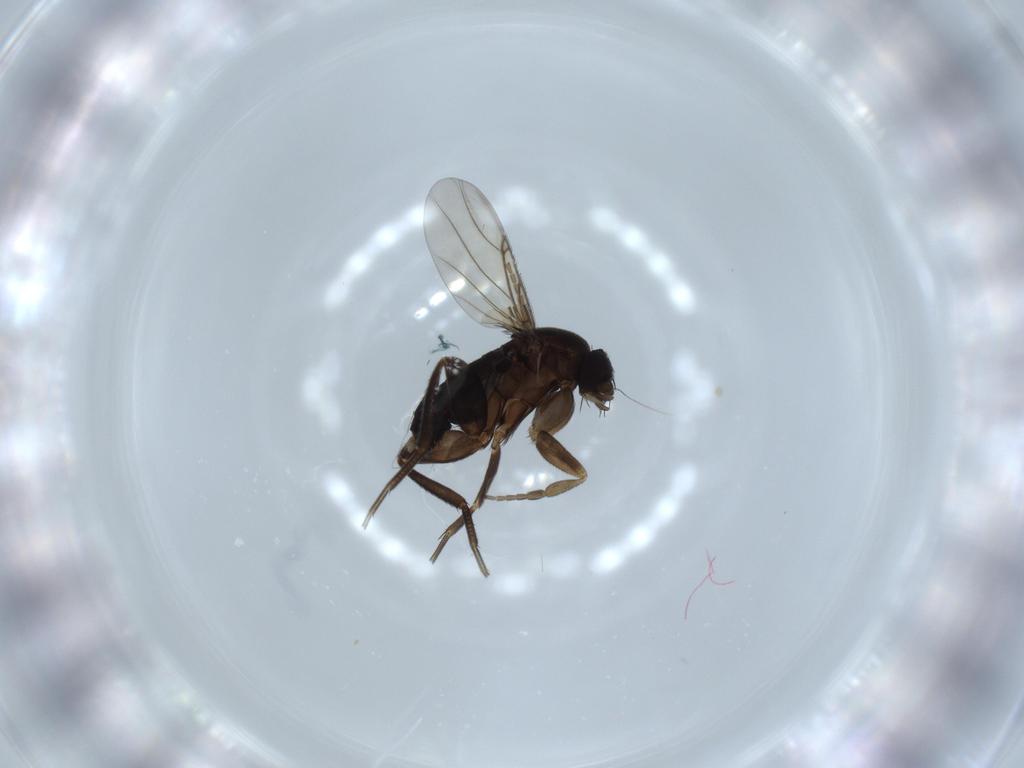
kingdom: Animalia
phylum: Arthropoda
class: Insecta
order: Diptera
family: Phoridae
